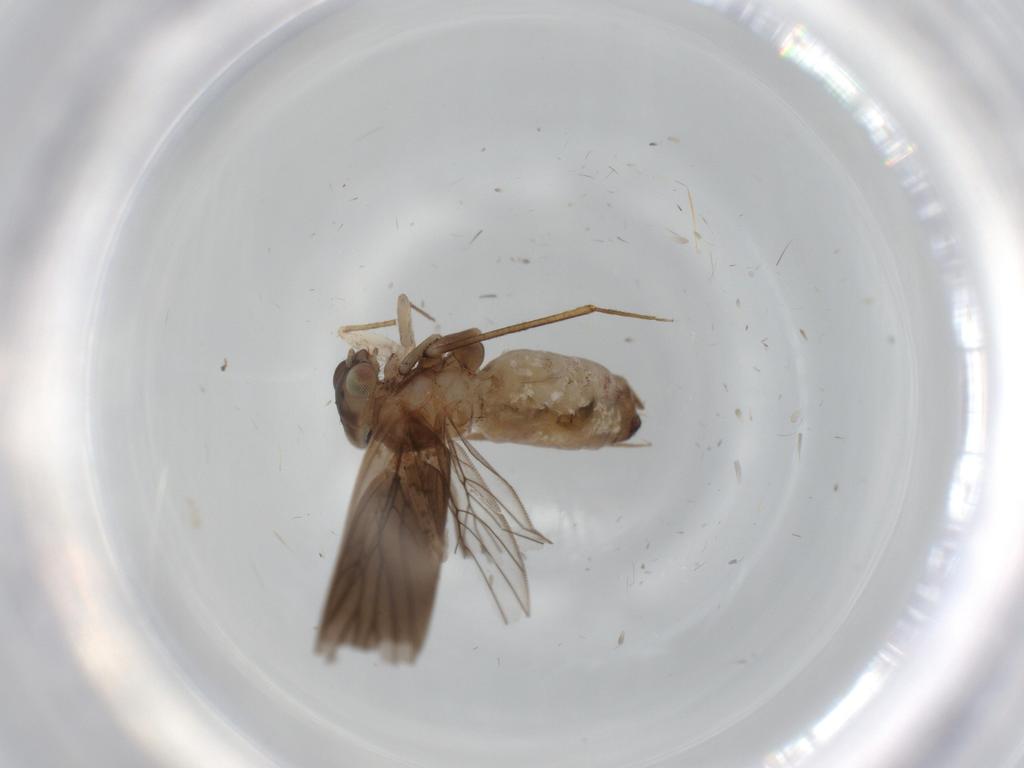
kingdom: Animalia
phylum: Arthropoda
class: Insecta
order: Psocodea
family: Lepidopsocidae
